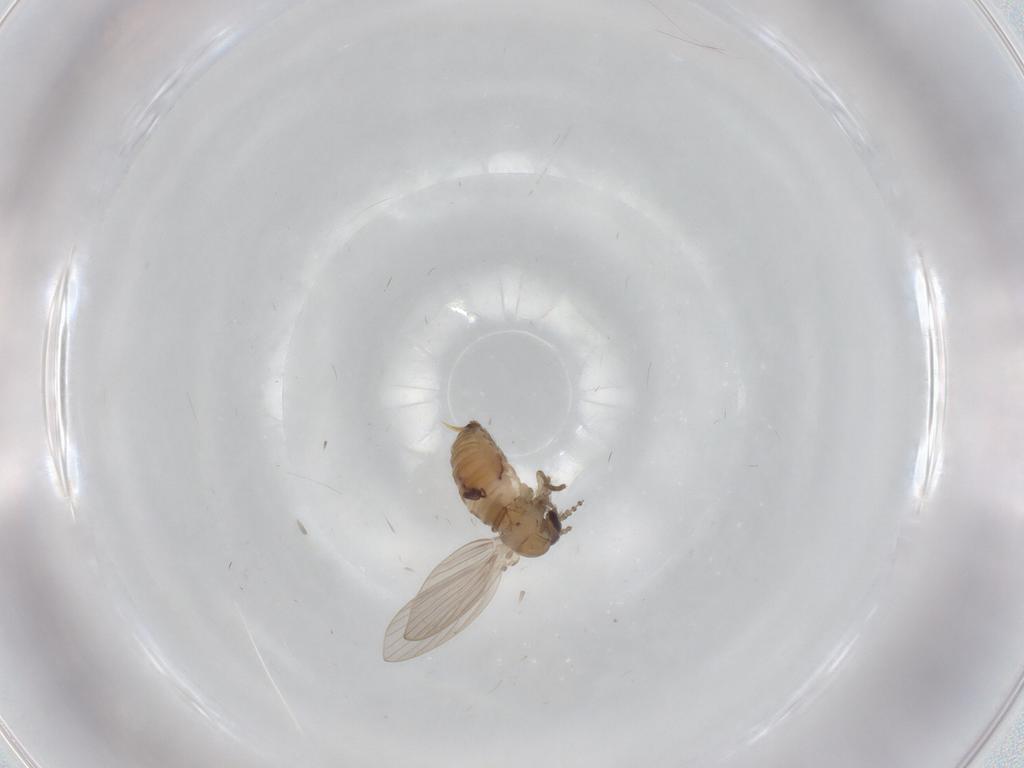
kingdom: Animalia
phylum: Arthropoda
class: Insecta
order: Diptera
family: Psychodidae
